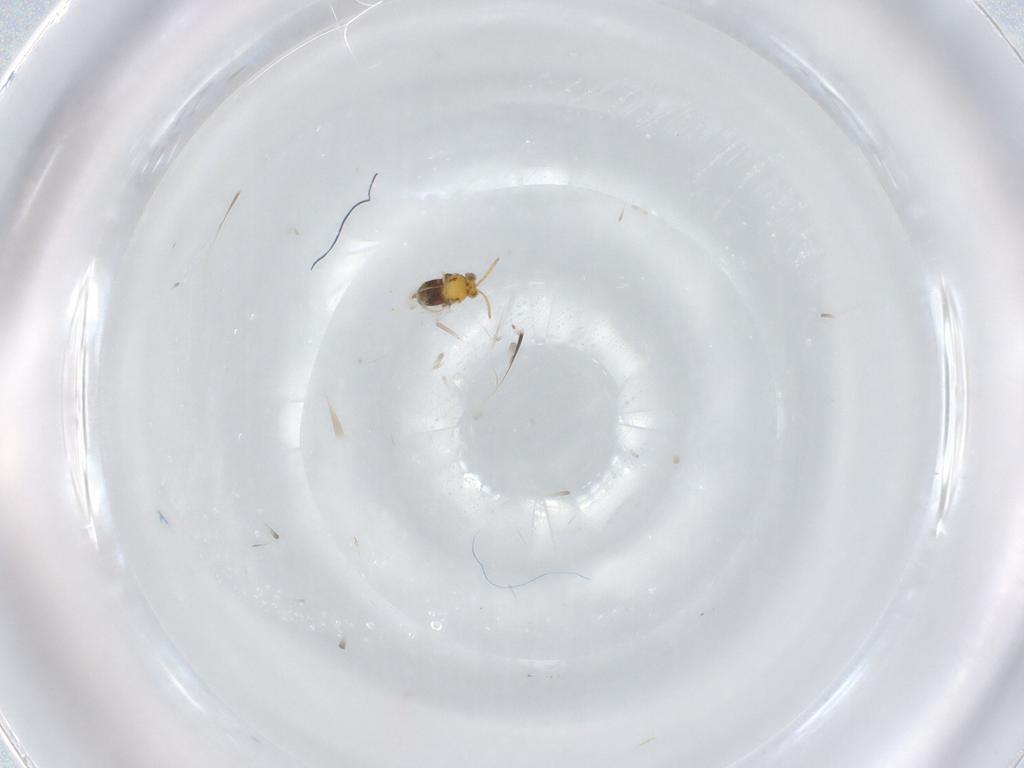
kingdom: Animalia
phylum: Arthropoda
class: Insecta
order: Hymenoptera
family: Aphelinidae
